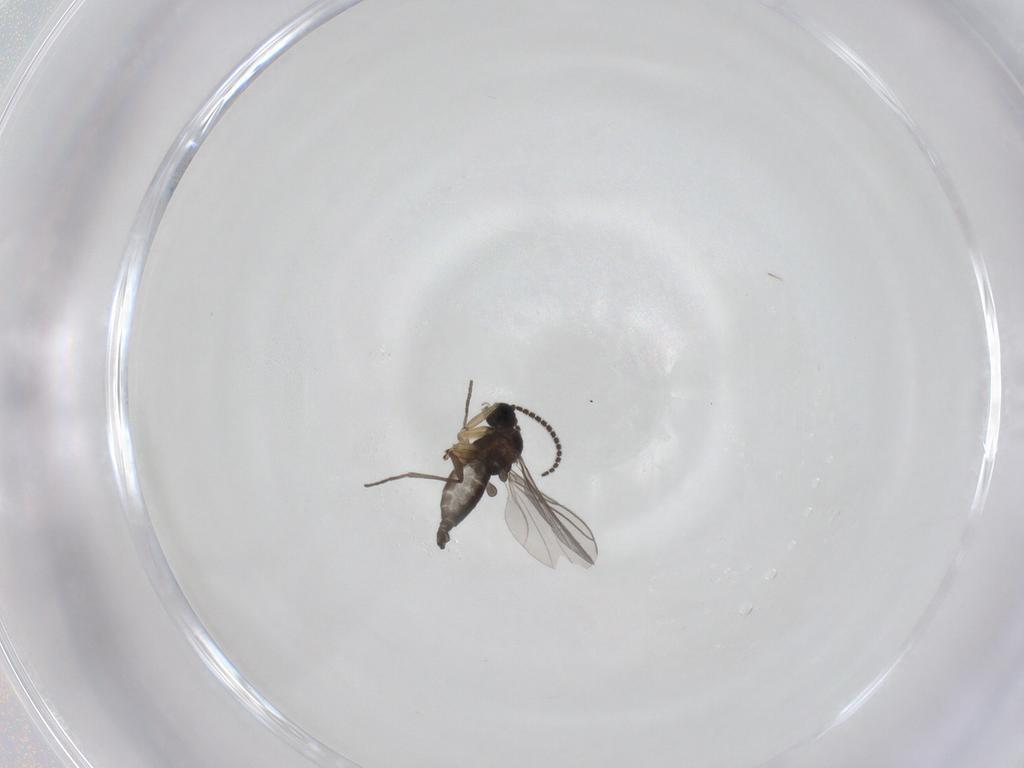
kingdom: Animalia
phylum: Arthropoda
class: Insecta
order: Diptera
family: Sciaridae
